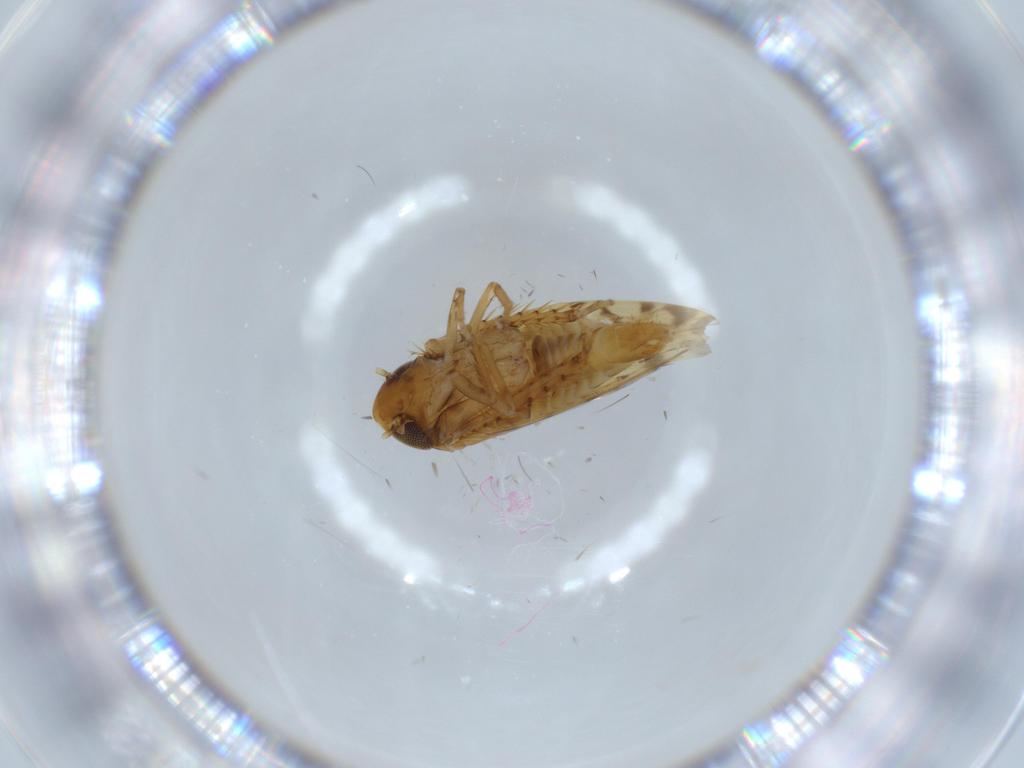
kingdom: Animalia
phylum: Arthropoda
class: Insecta
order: Hemiptera
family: Cicadellidae
